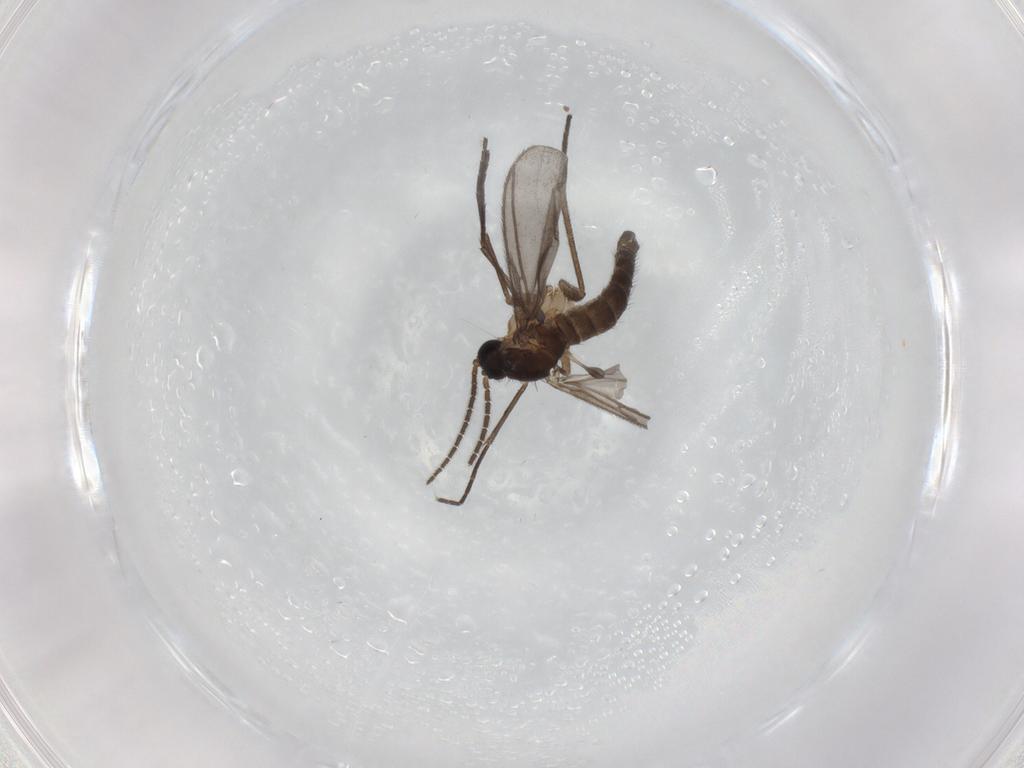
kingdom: Animalia
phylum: Arthropoda
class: Insecta
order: Diptera
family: Sciaridae
